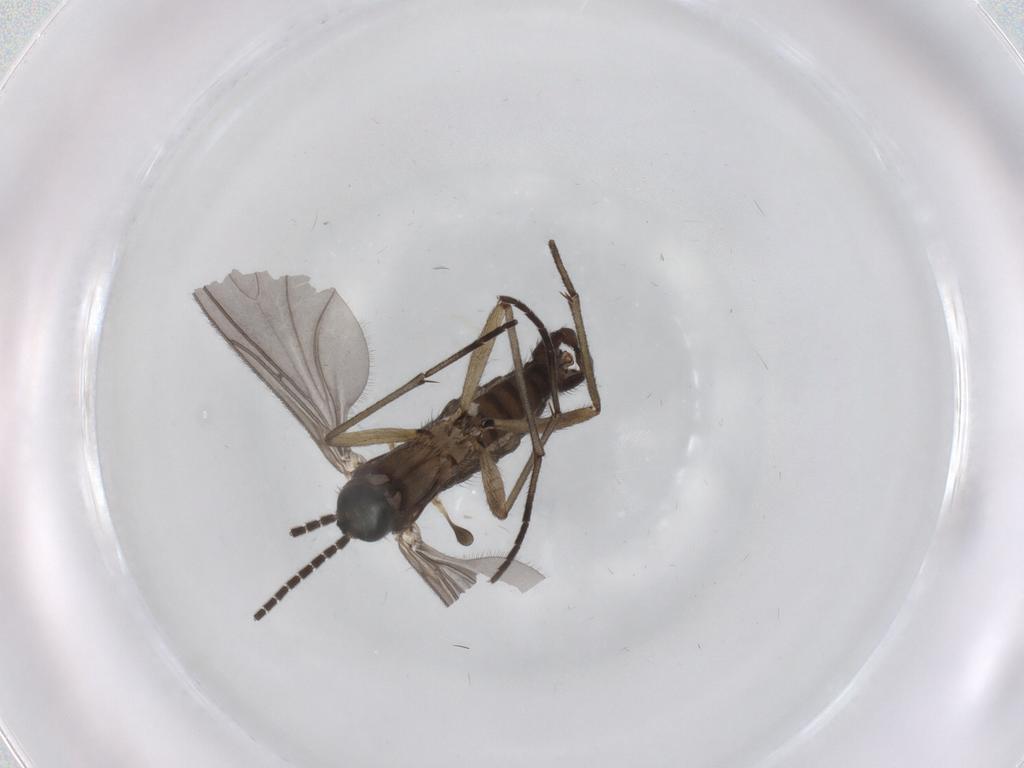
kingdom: Animalia
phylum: Arthropoda
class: Insecta
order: Diptera
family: Sciaridae
